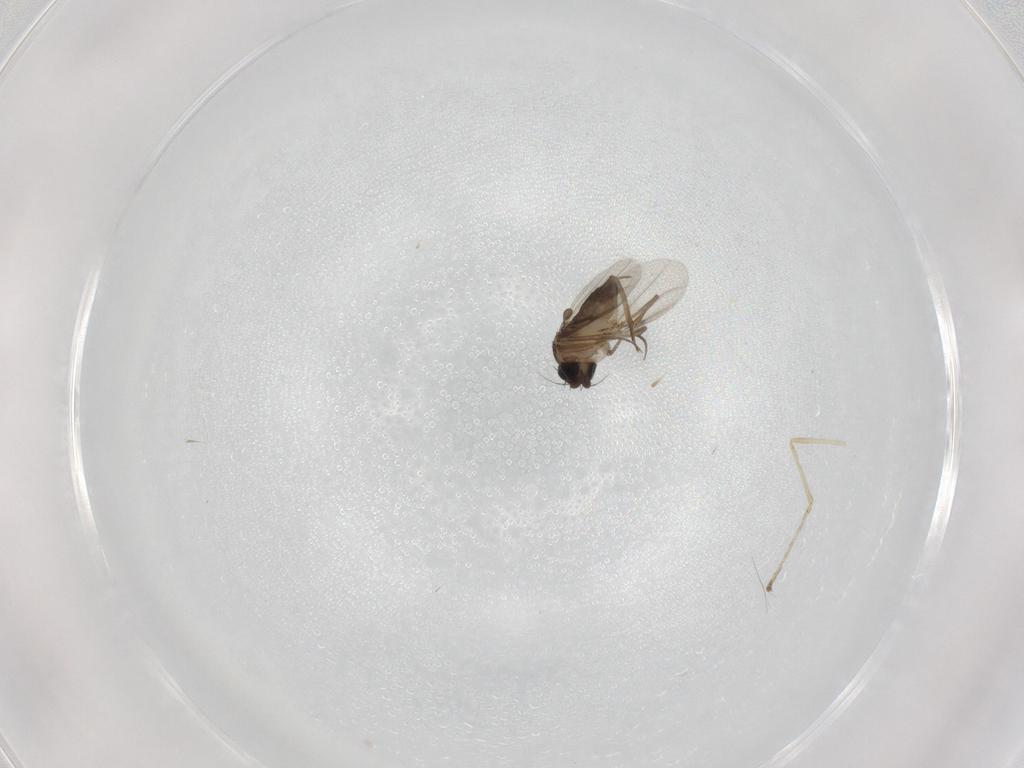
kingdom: Animalia
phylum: Arthropoda
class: Insecta
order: Diptera
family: Phoridae
